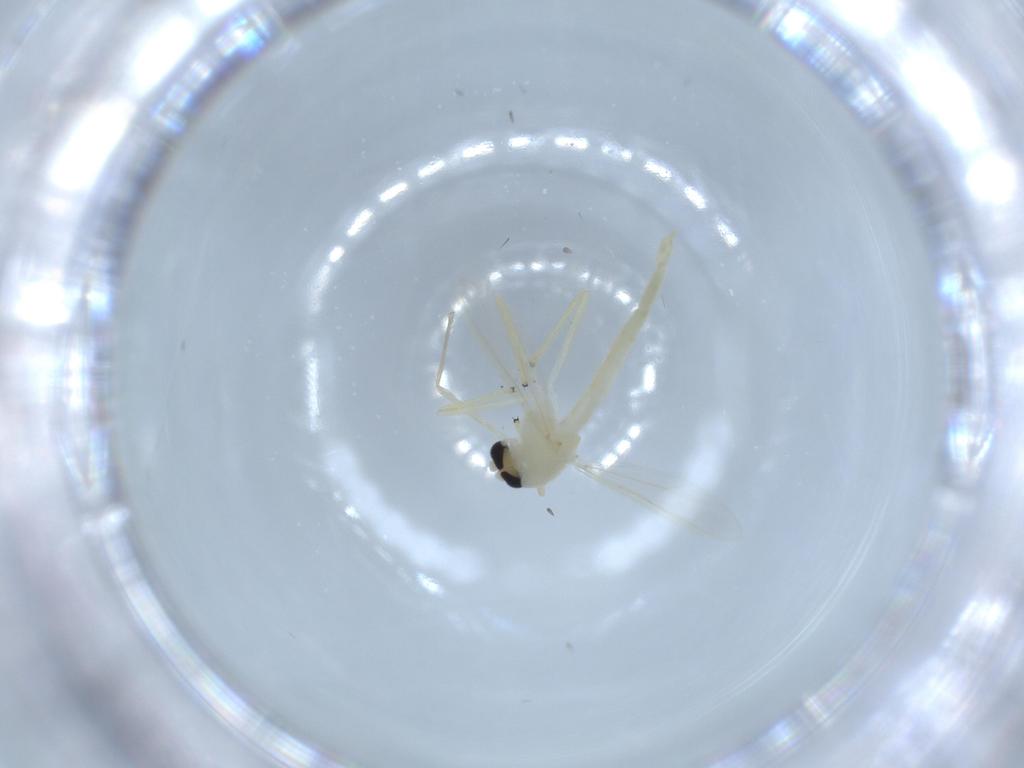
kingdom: Animalia
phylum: Arthropoda
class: Insecta
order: Diptera
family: Chironomidae
